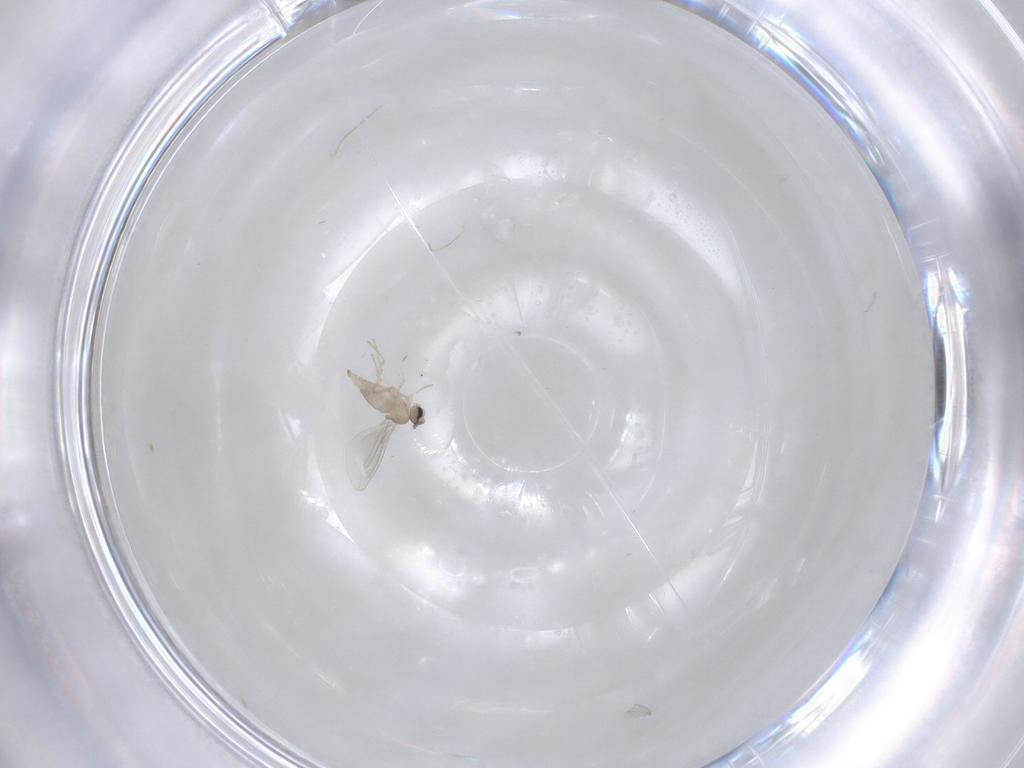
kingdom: Animalia
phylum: Arthropoda
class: Insecta
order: Diptera
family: Cecidomyiidae
